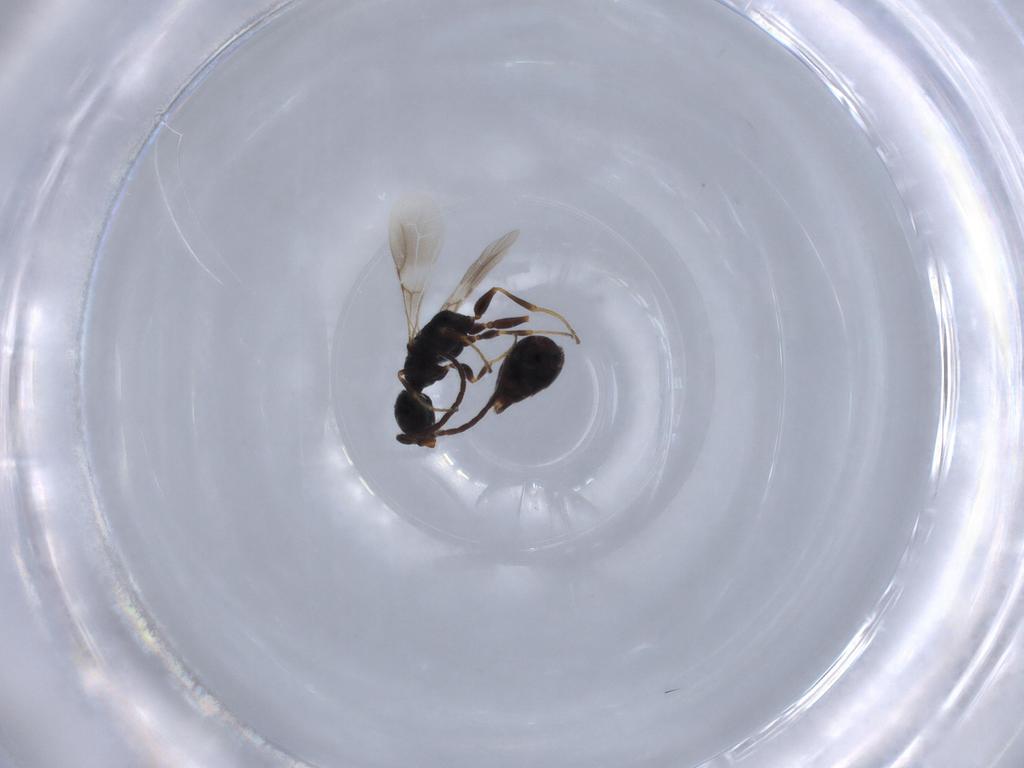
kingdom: Animalia
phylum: Arthropoda
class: Insecta
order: Hymenoptera
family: Bethylidae
